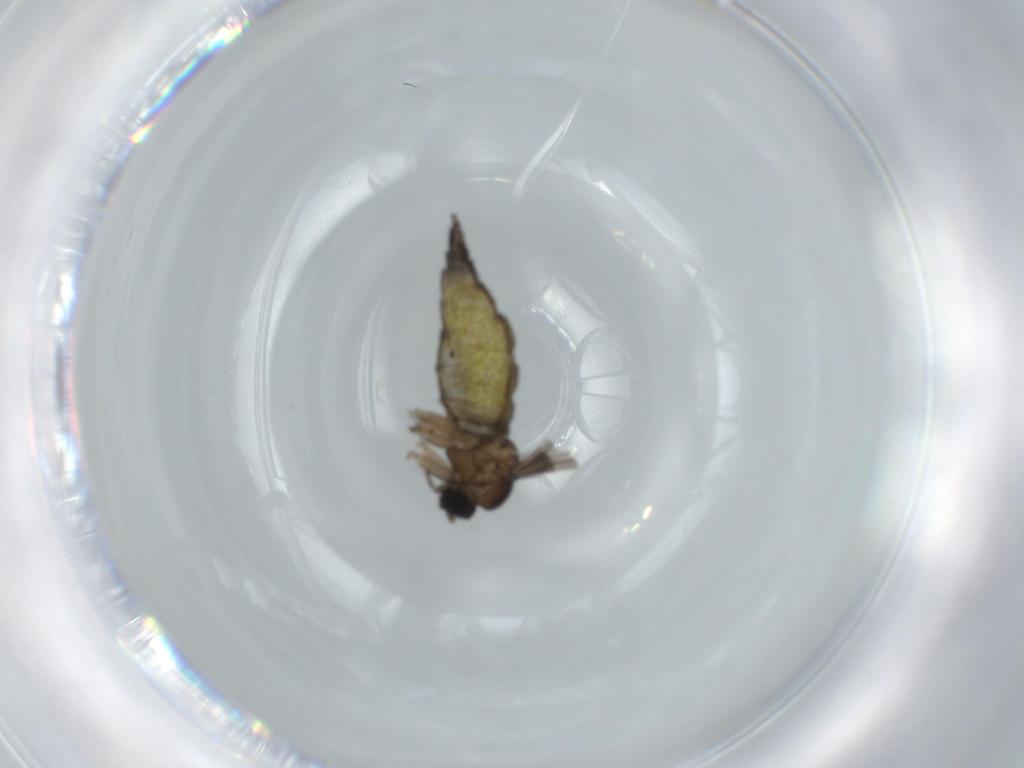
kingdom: Animalia
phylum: Arthropoda
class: Insecta
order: Diptera
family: Sciaridae
